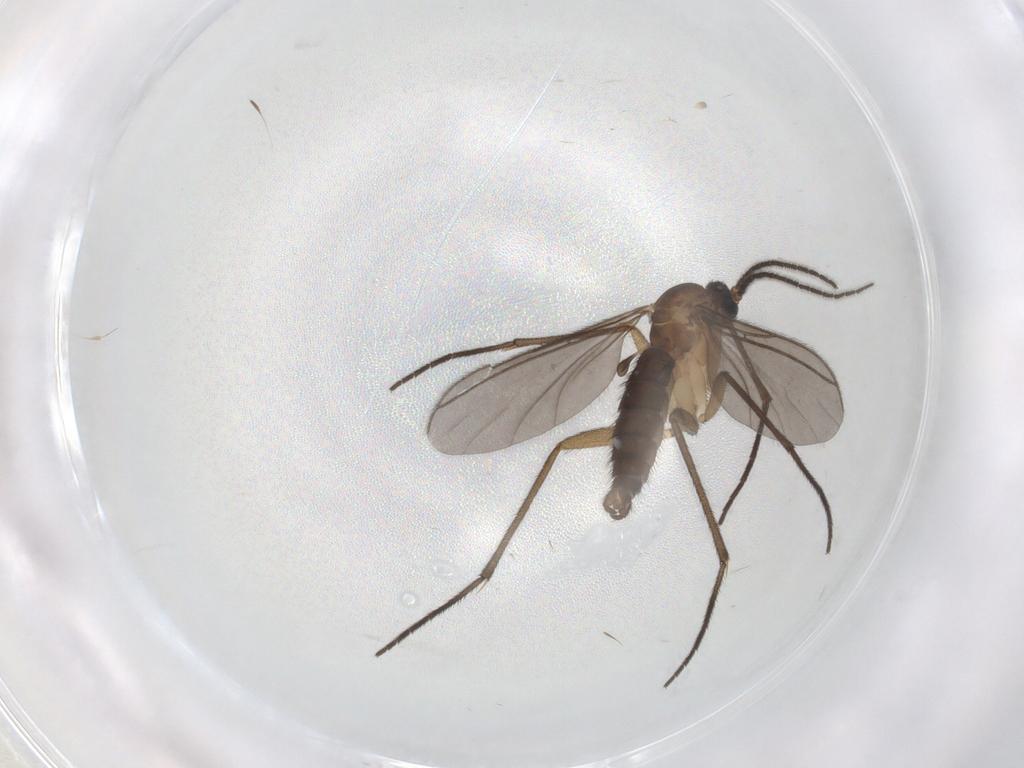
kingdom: Animalia
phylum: Arthropoda
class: Insecta
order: Diptera
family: Sciaridae
